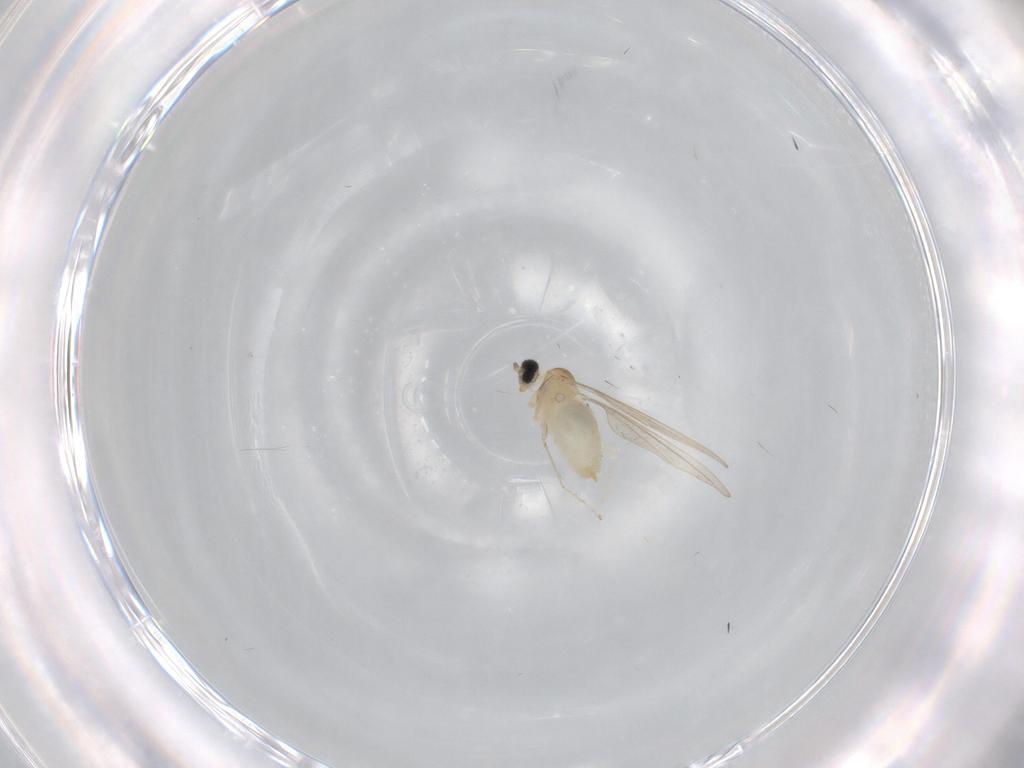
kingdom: Animalia
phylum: Arthropoda
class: Insecta
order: Diptera
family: Cecidomyiidae
